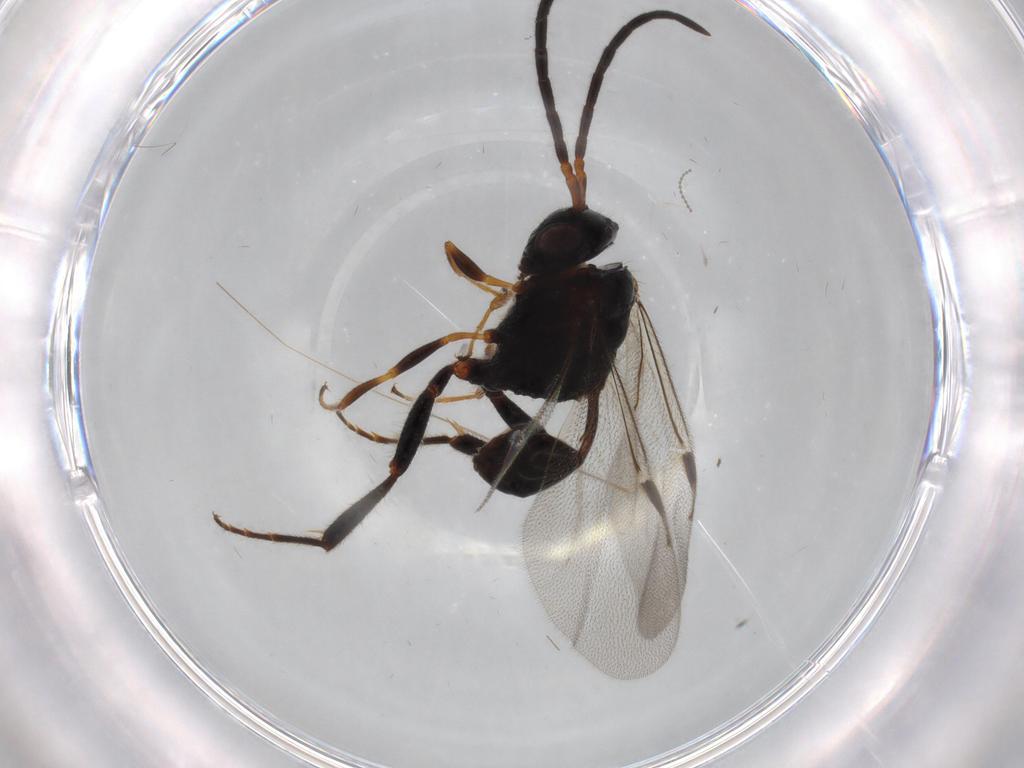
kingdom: Animalia
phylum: Arthropoda
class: Insecta
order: Hymenoptera
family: Evaniidae
